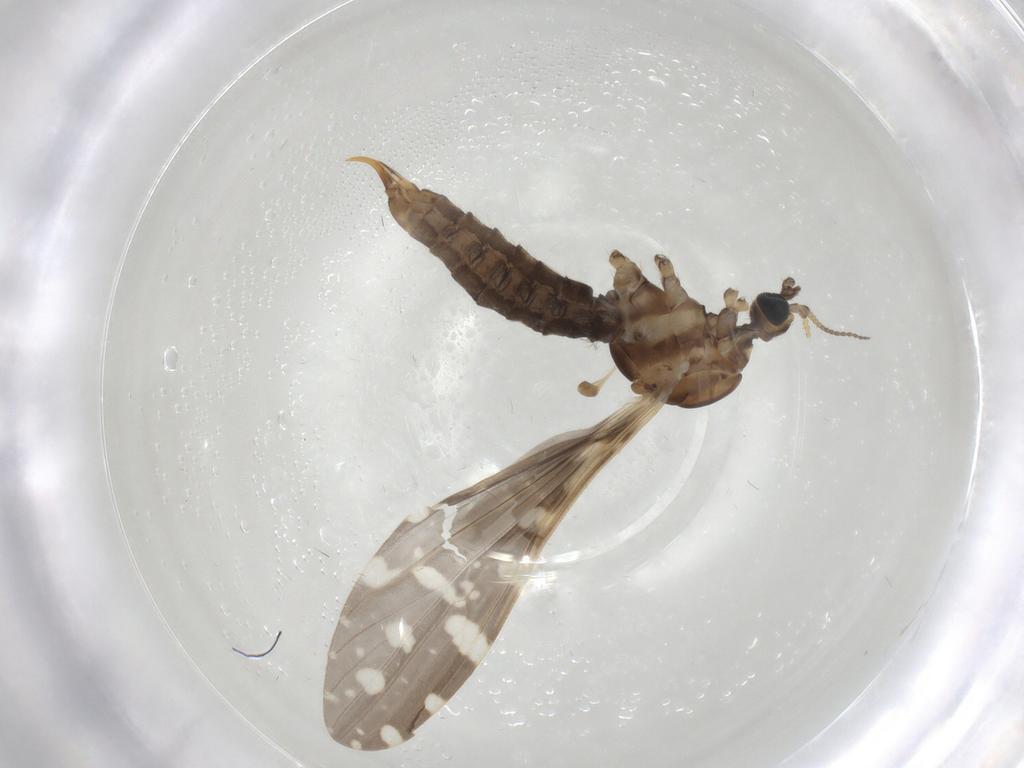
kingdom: Animalia
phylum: Arthropoda
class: Insecta
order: Diptera
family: Limoniidae
